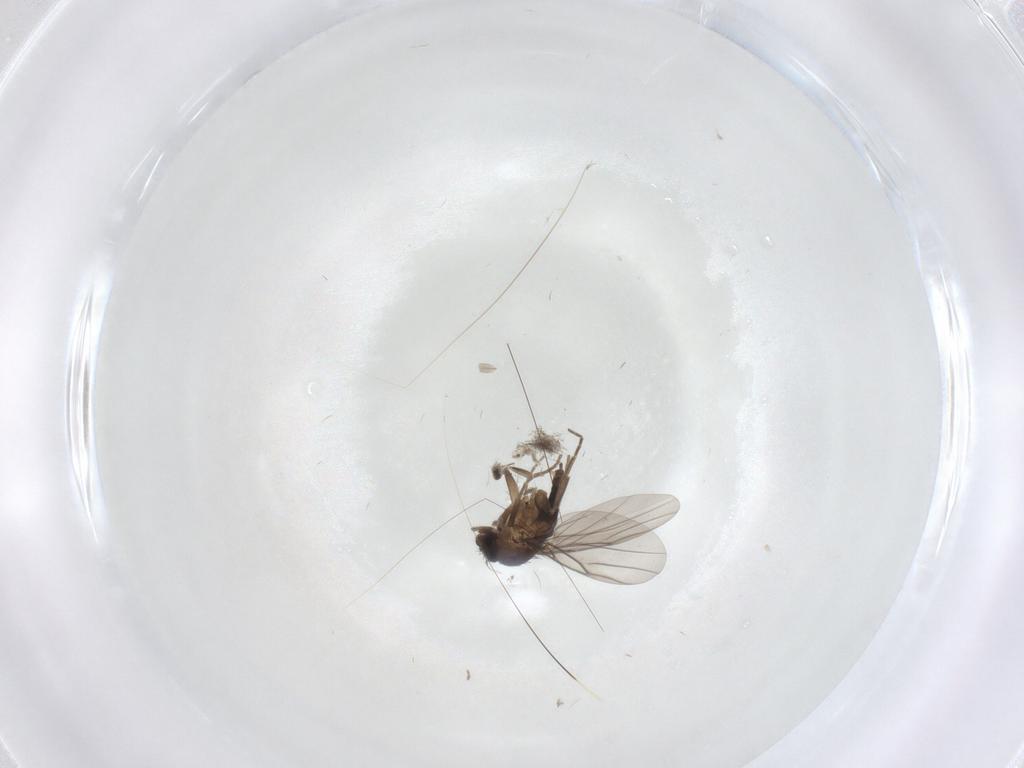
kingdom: Animalia
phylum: Arthropoda
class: Insecta
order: Diptera
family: Phoridae
